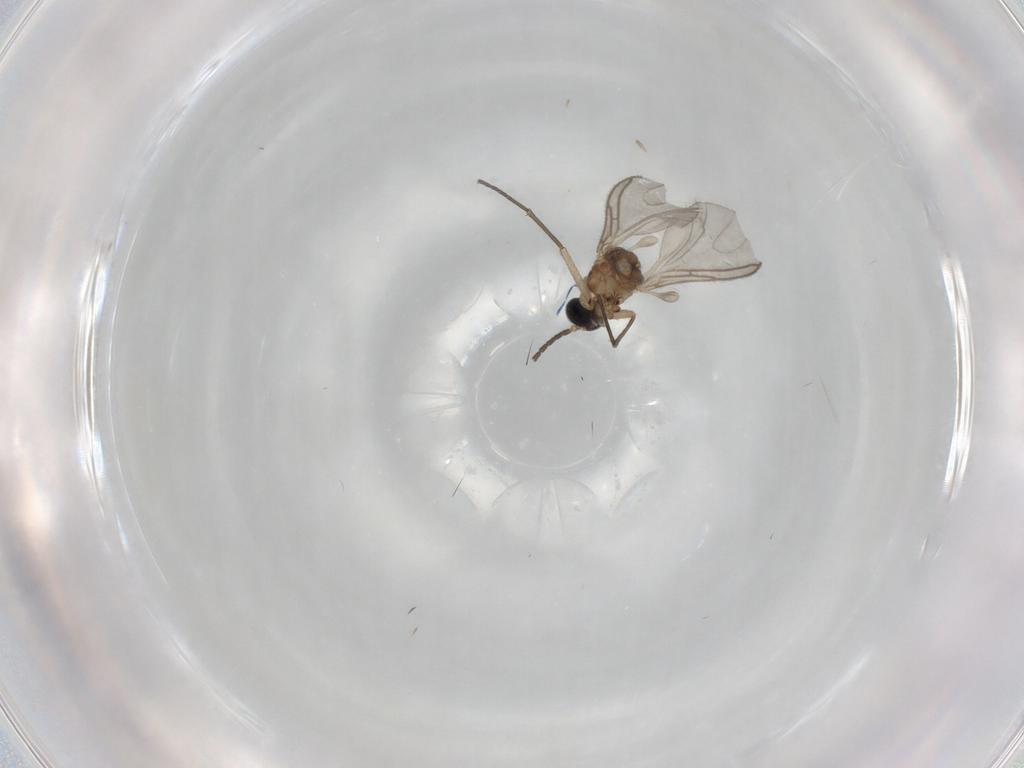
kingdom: Animalia
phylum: Arthropoda
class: Insecta
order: Diptera
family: Sciaridae
